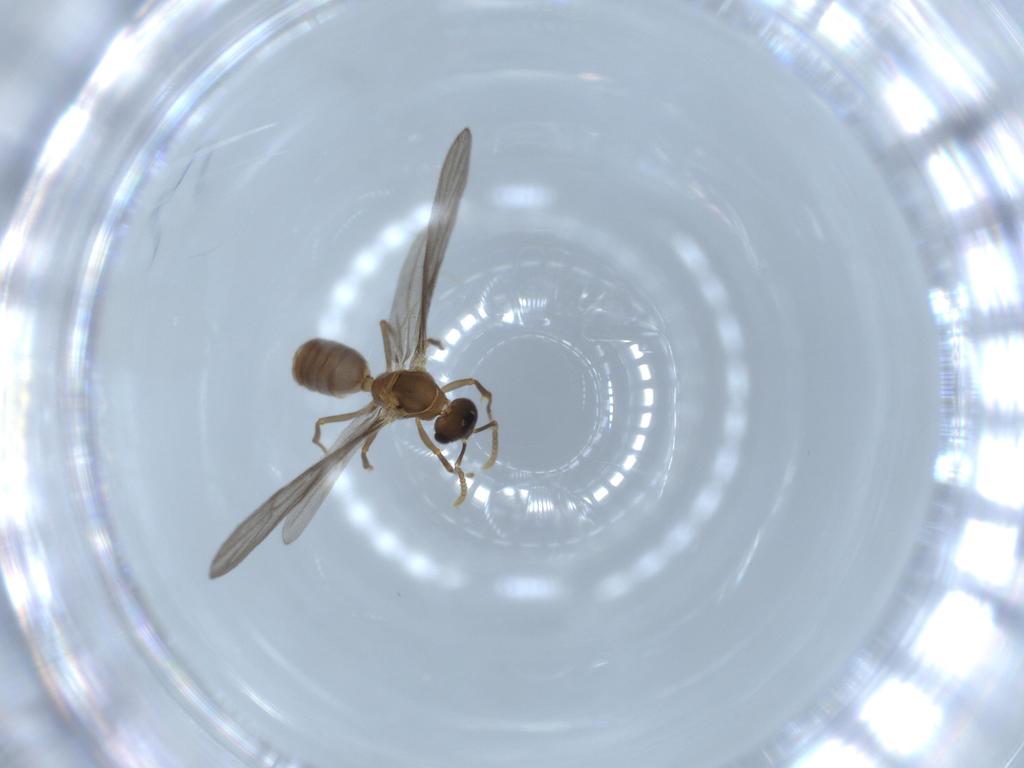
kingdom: Animalia
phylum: Arthropoda
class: Insecta
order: Hymenoptera
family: Formicidae
